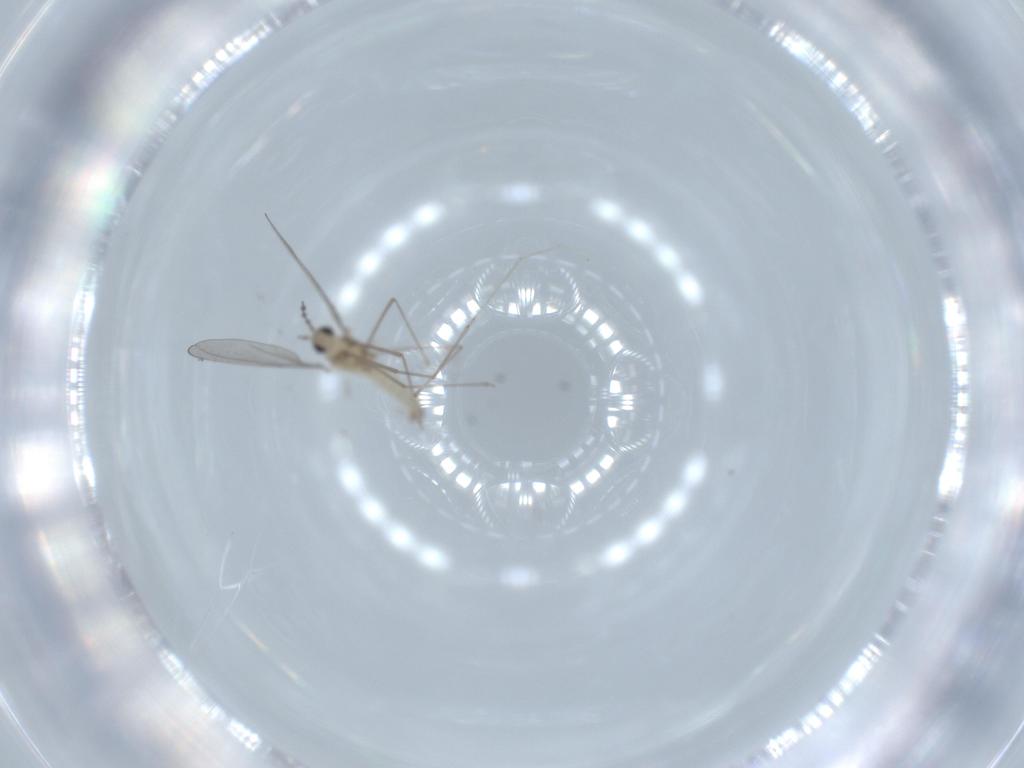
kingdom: Animalia
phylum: Arthropoda
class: Insecta
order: Diptera
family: Cecidomyiidae
